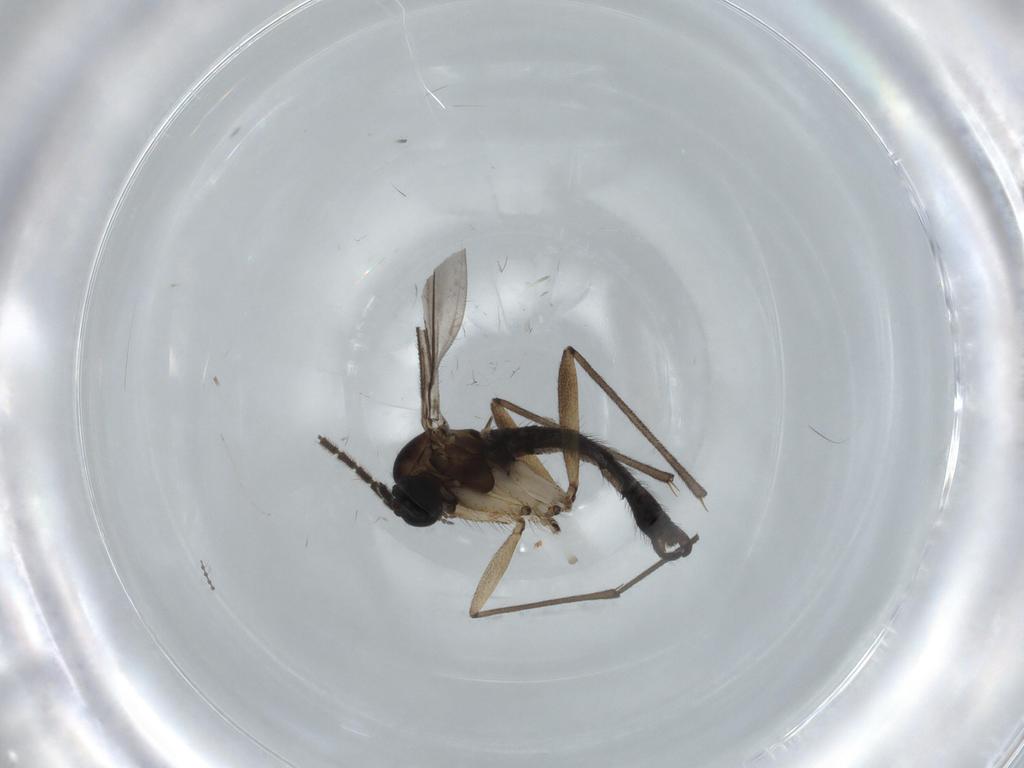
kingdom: Animalia
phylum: Arthropoda
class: Insecta
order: Diptera
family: Sciaridae
